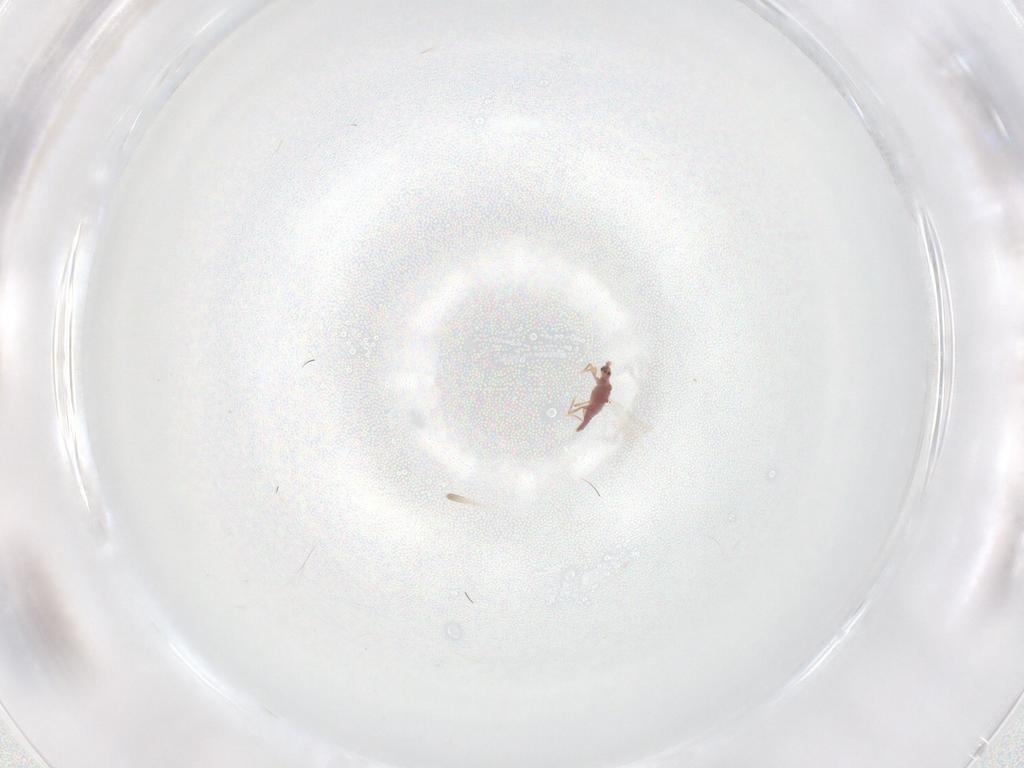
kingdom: Animalia
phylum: Arthropoda
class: Insecta
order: Hemiptera
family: Pseudococcidae
